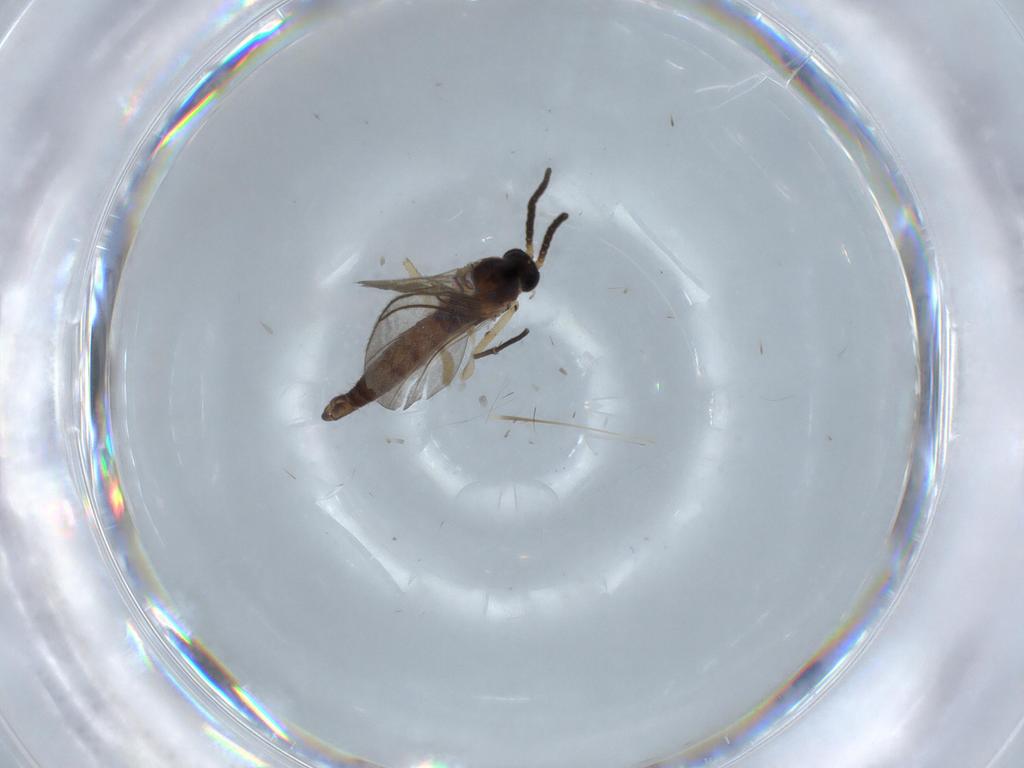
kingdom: Animalia
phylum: Arthropoda
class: Insecta
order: Diptera
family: Sciaridae
